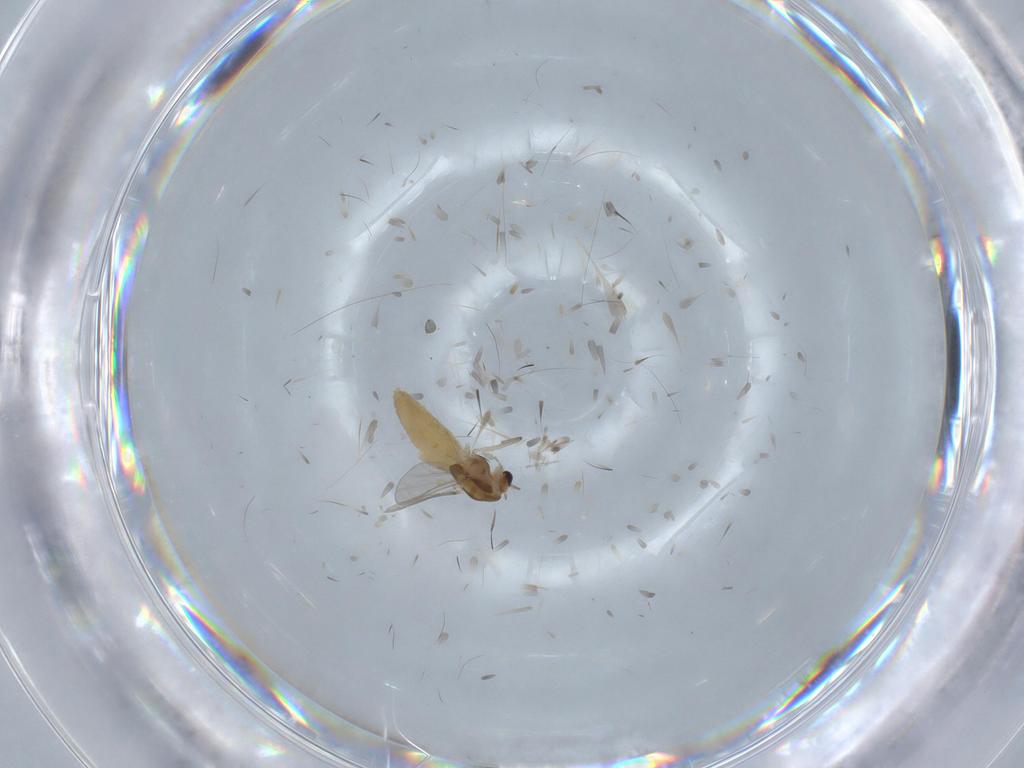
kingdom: Animalia
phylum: Arthropoda
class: Insecta
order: Diptera
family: Chironomidae
